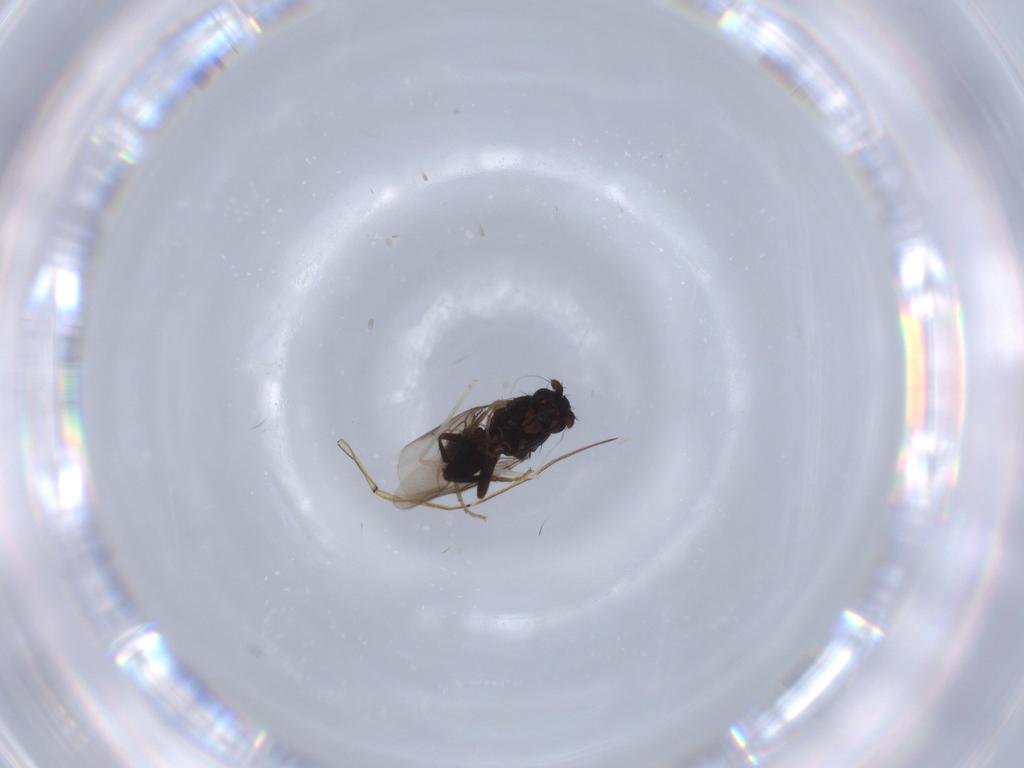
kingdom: Animalia
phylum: Arthropoda
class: Insecta
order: Diptera
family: Sphaeroceridae
